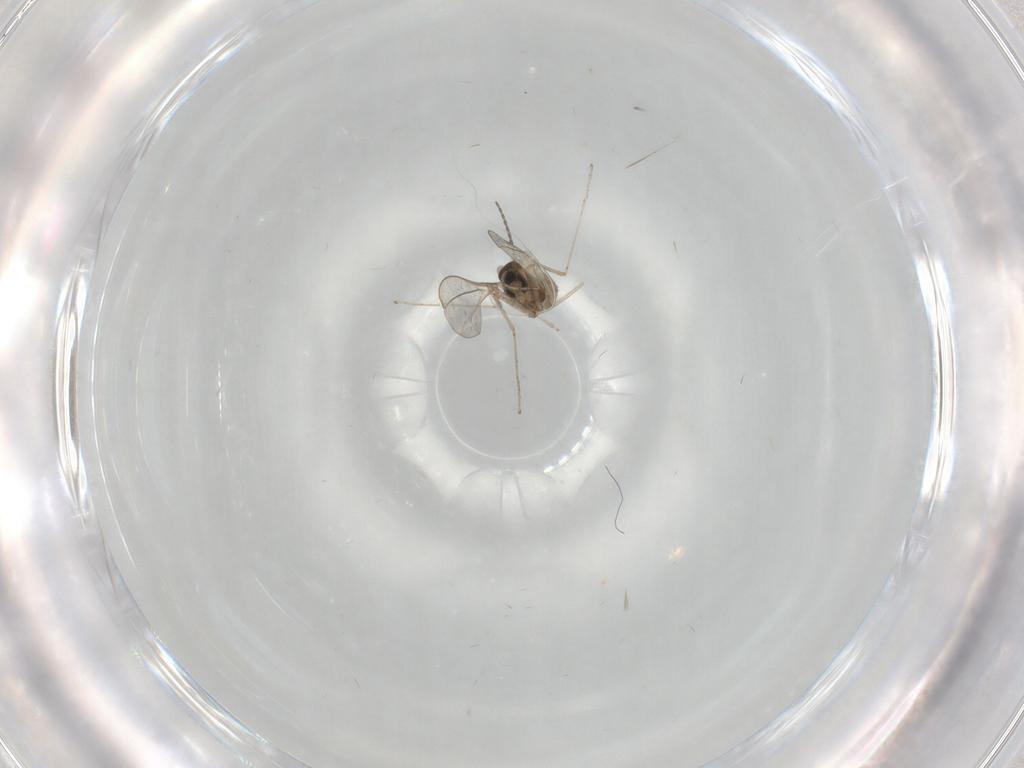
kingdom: Animalia
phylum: Arthropoda
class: Insecta
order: Diptera
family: Cecidomyiidae
